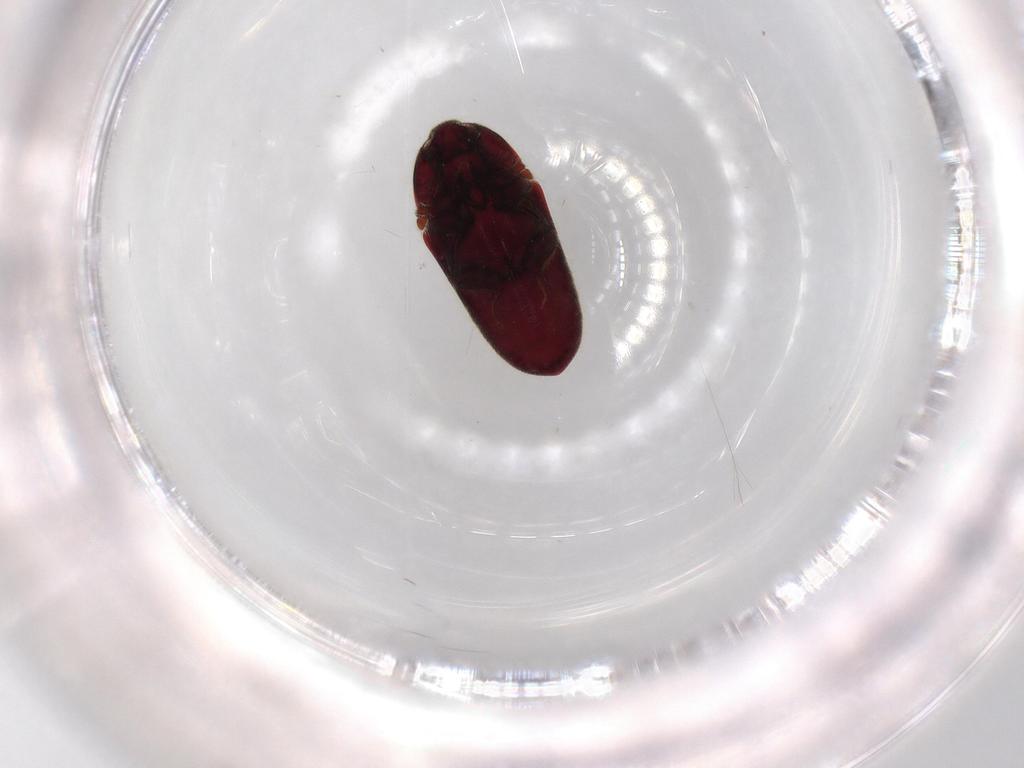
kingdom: Animalia
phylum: Arthropoda
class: Insecta
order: Coleoptera
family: Throscidae
